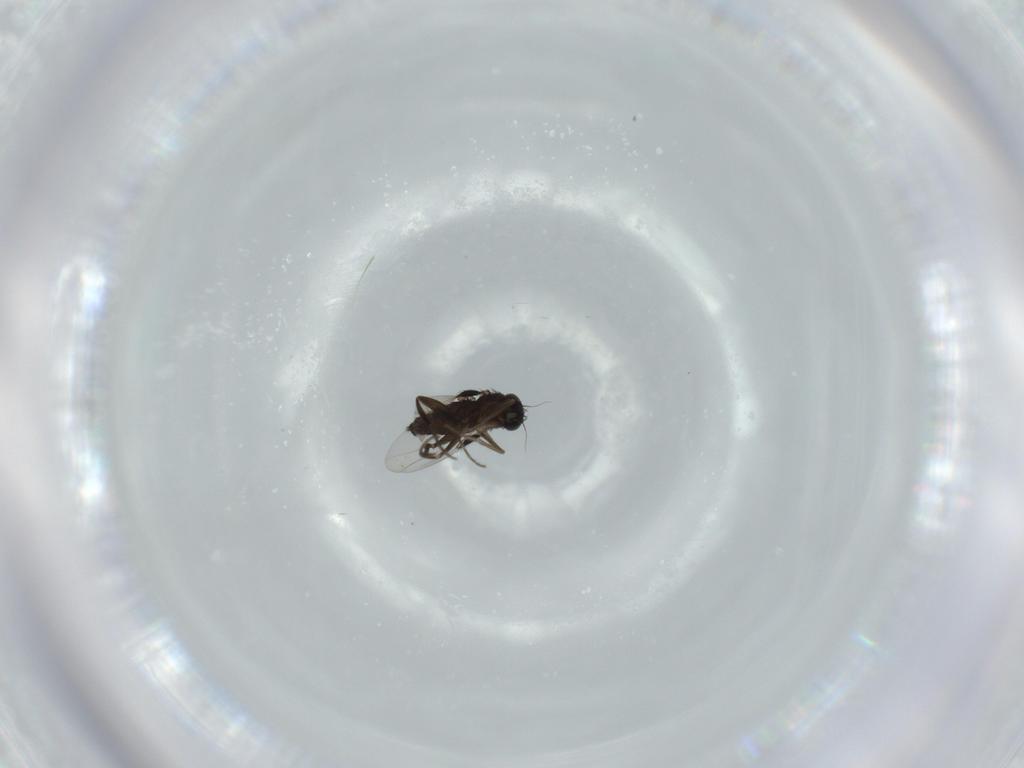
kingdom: Animalia
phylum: Arthropoda
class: Insecta
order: Diptera
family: Phoridae
